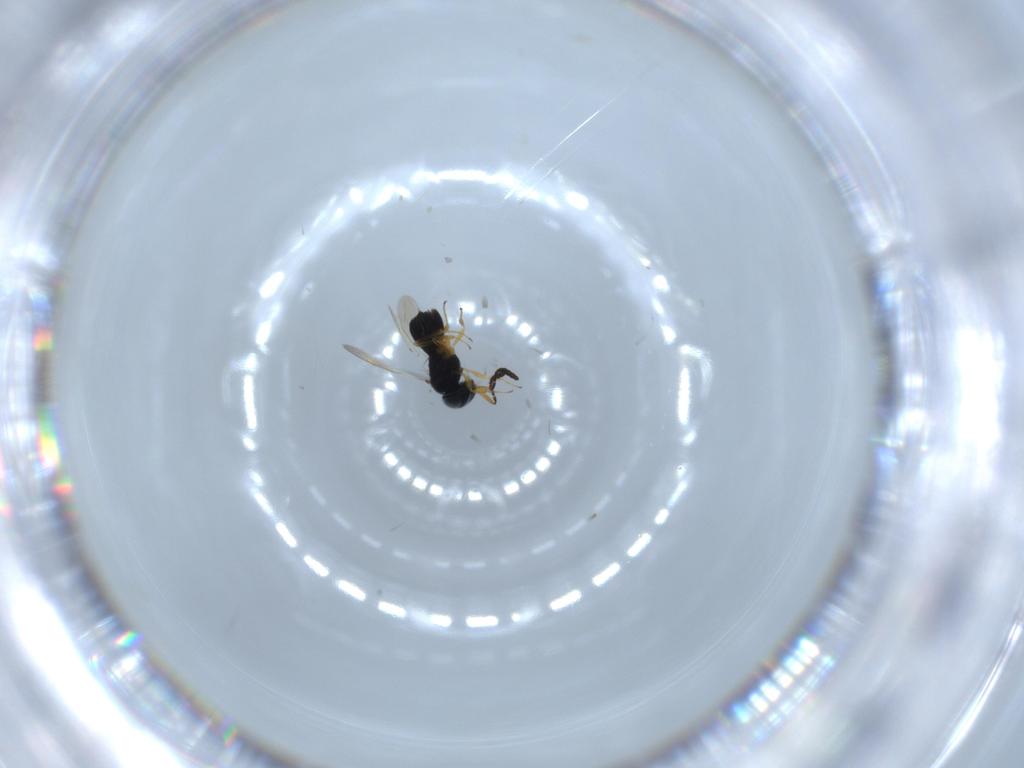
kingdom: Animalia
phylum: Arthropoda
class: Insecta
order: Hymenoptera
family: Scelionidae
